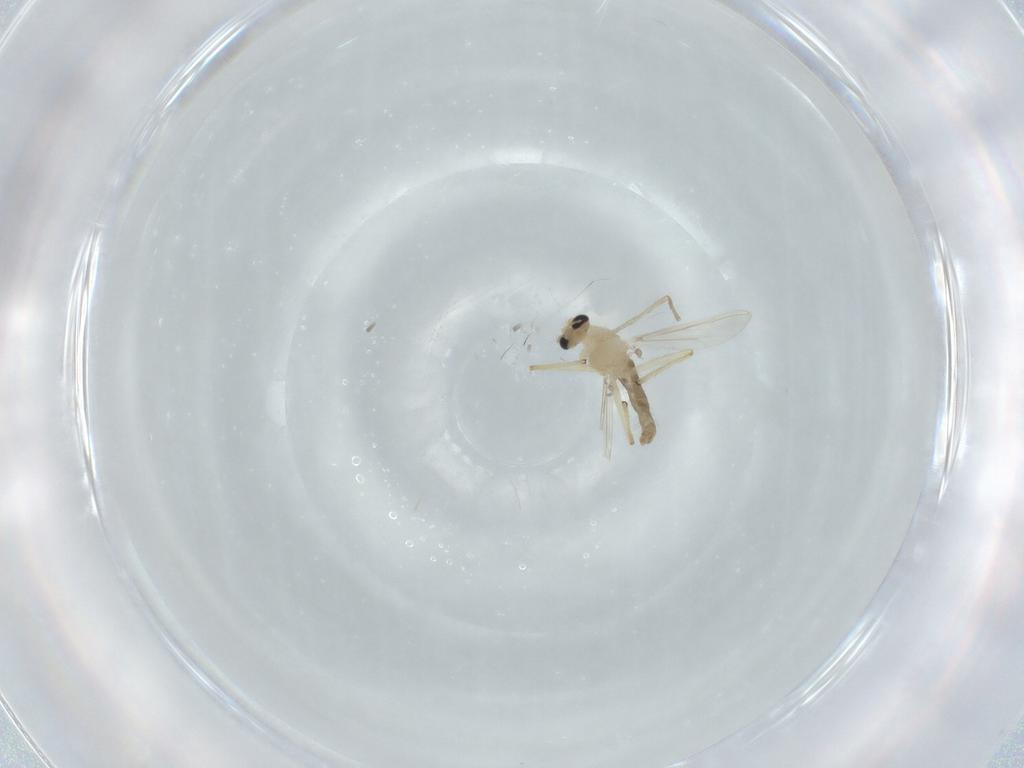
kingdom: Animalia
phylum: Arthropoda
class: Insecta
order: Diptera
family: Chironomidae
